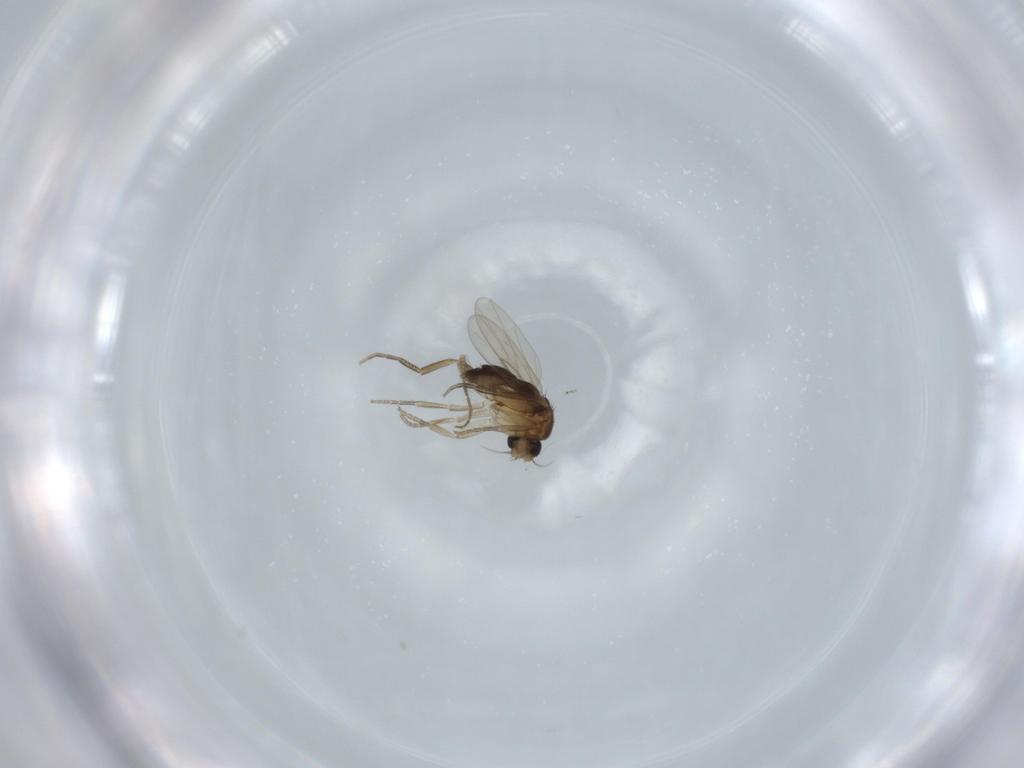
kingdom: Animalia
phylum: Arthropoda
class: Insecta
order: Diptera
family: Phoridae
